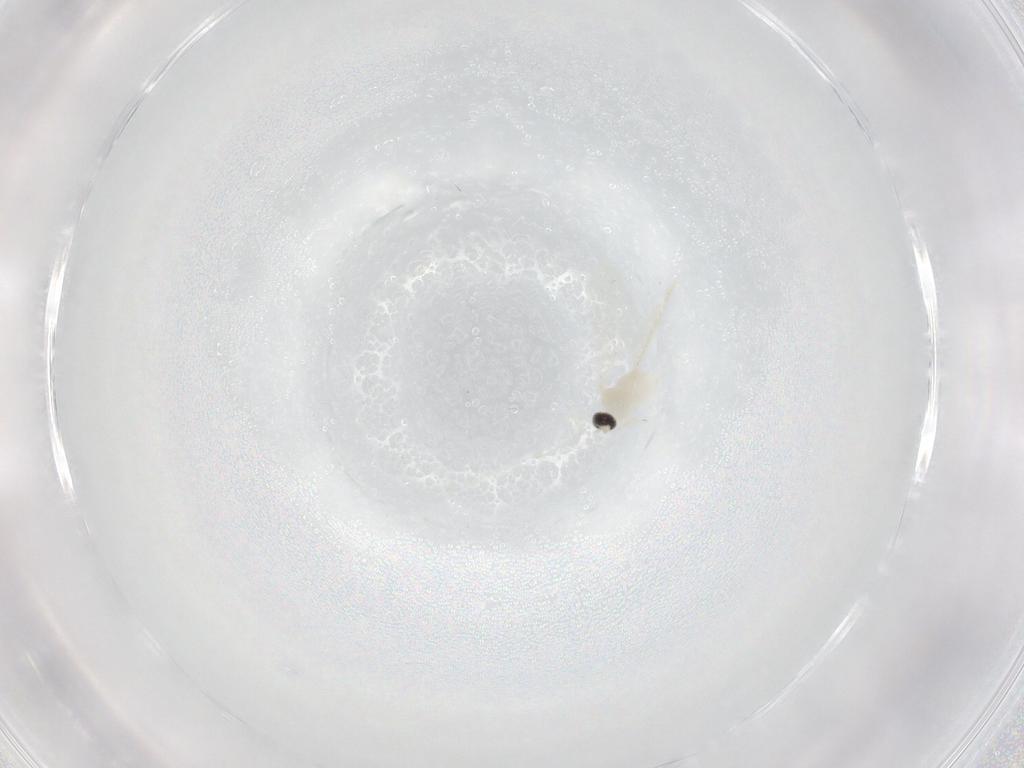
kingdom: Animalia
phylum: Arthropoda
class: Insecta
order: Diptera
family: Cecidomyiidae
